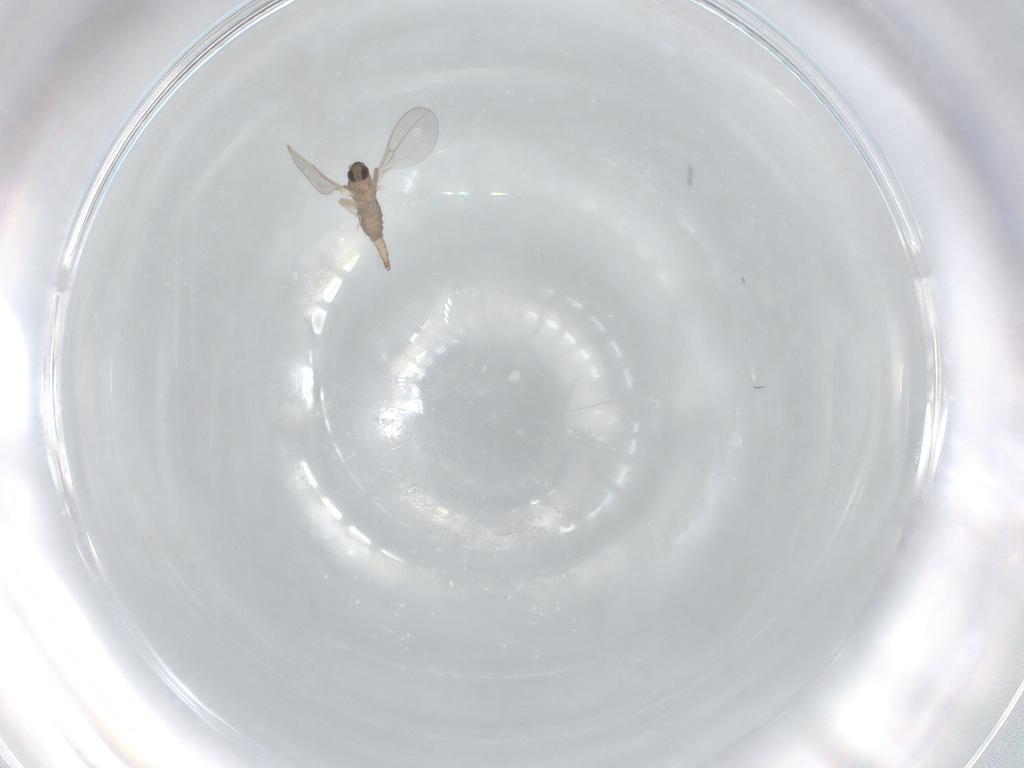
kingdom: Animalia
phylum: Arthropoda
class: Insecta
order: Diptera
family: Cecidomyiidae
